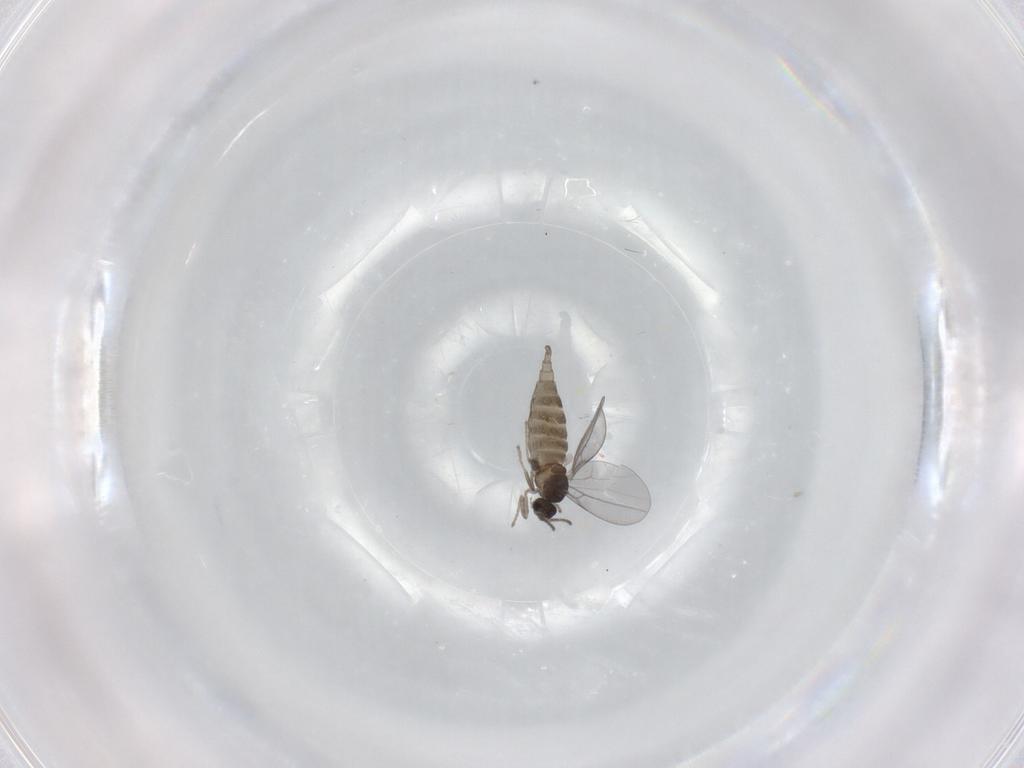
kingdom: Animalia
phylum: Arthropoda
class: Insecta
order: Diptera
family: Cecidomyiidae
